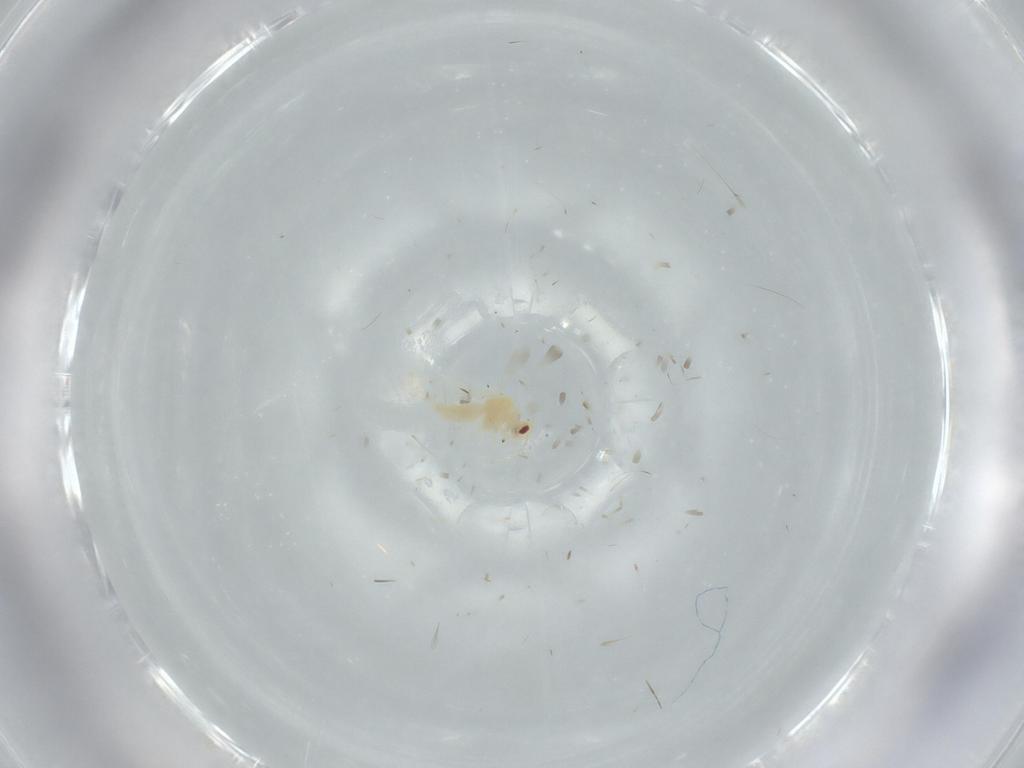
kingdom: Animalia
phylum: Arthropoda
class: Insecta
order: Hemiptera
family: Aleyrodidae
